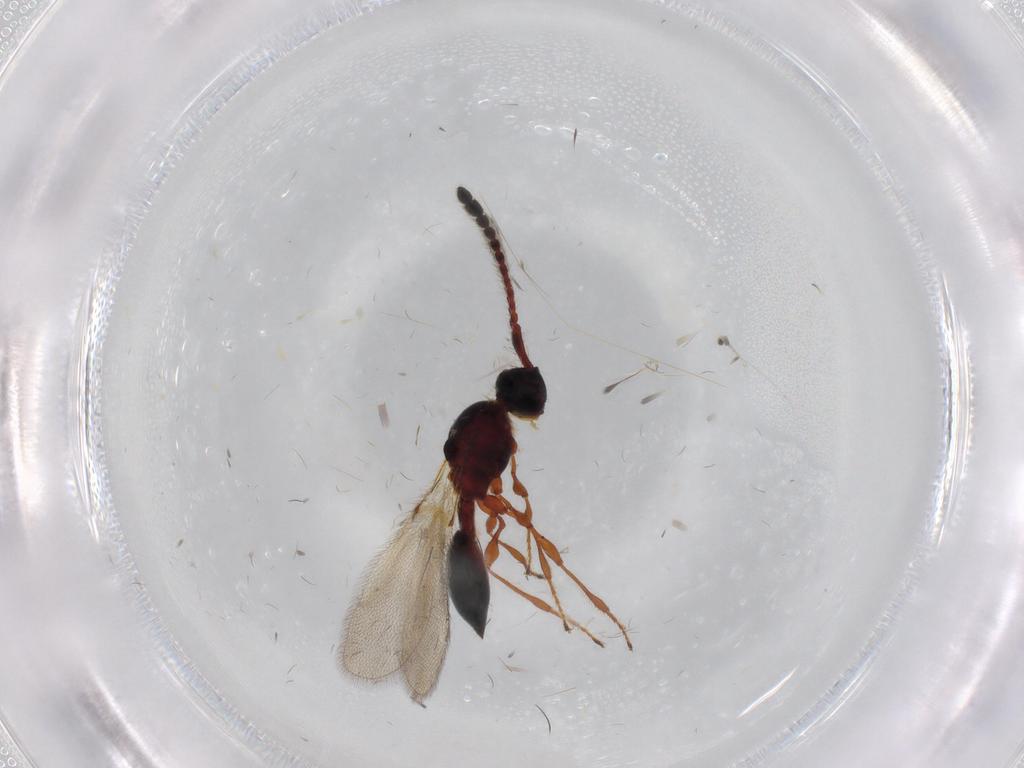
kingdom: Animalia
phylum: Arthropoda
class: Insecta
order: Hymenoptera
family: Diapriidae
